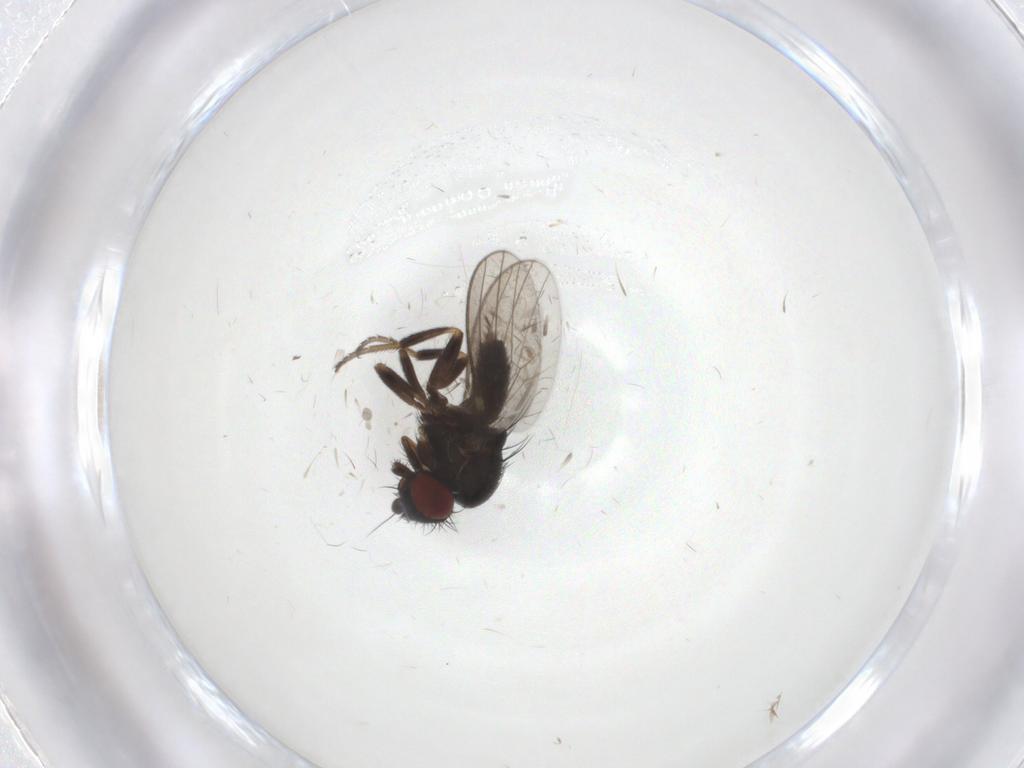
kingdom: Animalia
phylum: Arthropoda
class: Insecta
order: Diptera
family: Milichiidae
